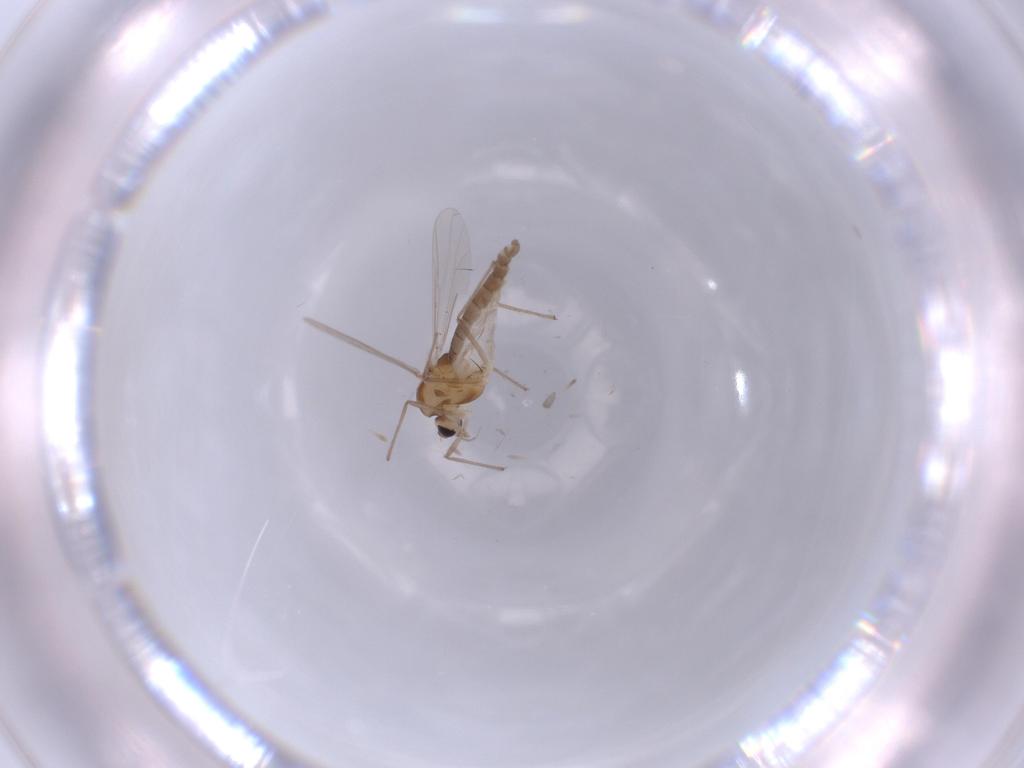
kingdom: Animalia
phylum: Arthropoda
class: Insecta
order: Diptera
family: Chironomidae
